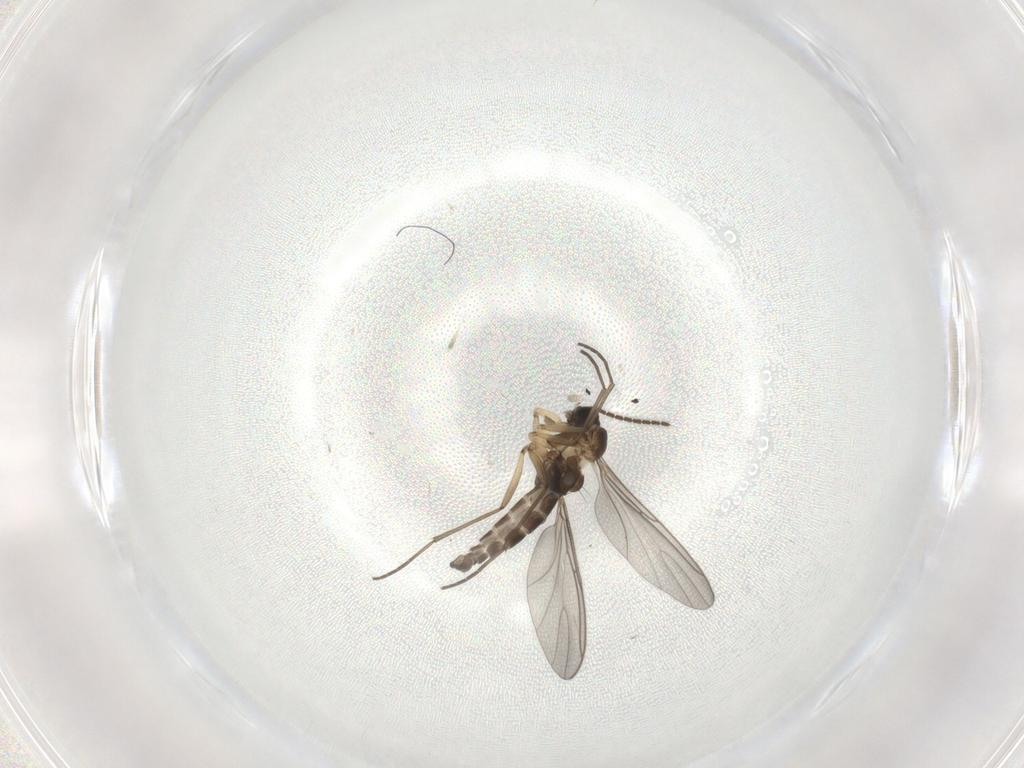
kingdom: Animalia
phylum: Arthropoda
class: Insecta
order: Diptera
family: Sciaridae
